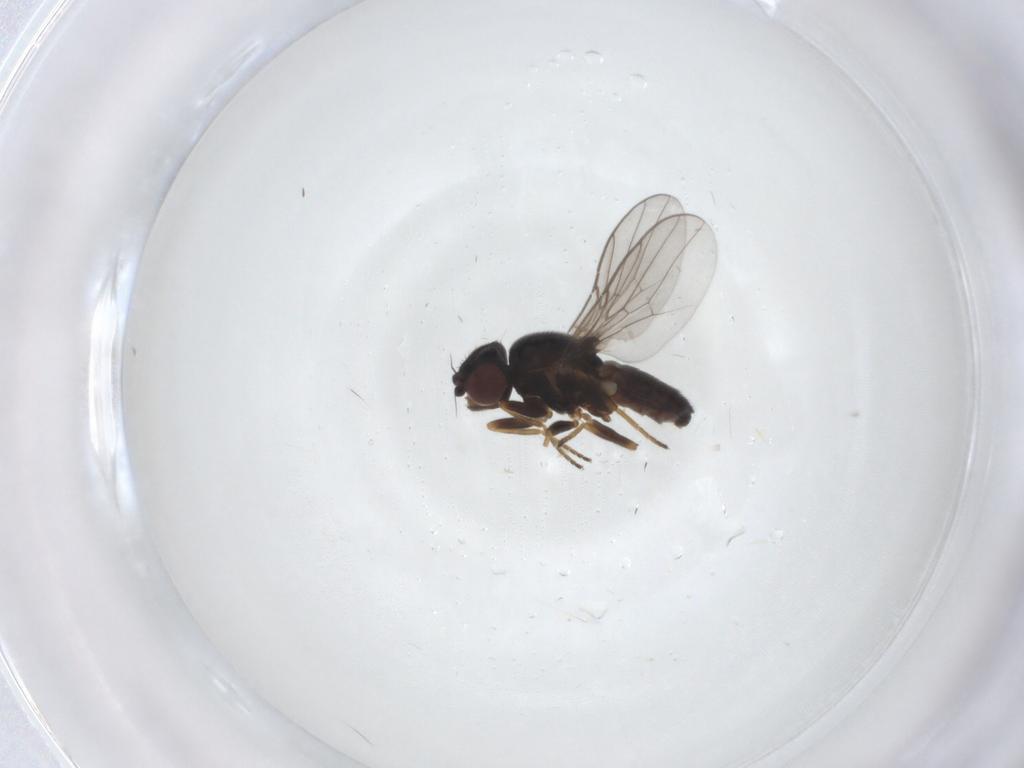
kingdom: Animalia
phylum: Arthropoda
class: Insecta
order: Diptera
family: Chloropidae
